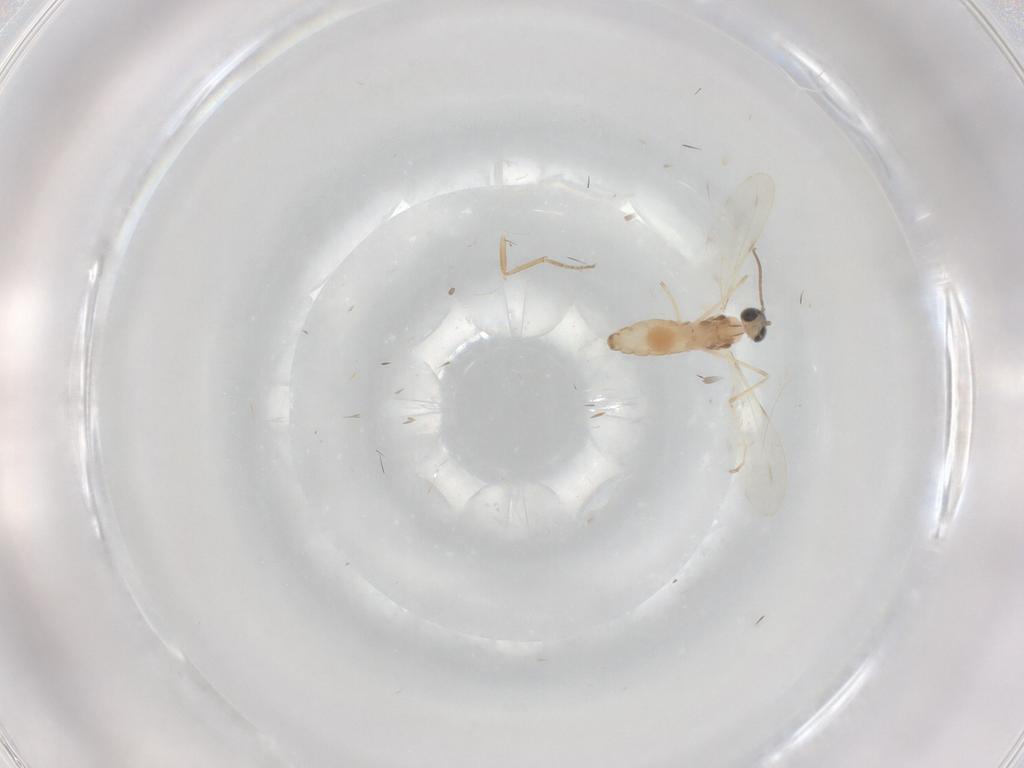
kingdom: Animalia
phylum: Arthropoda
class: Insecta
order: Diptera
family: Cecidomyiidae
